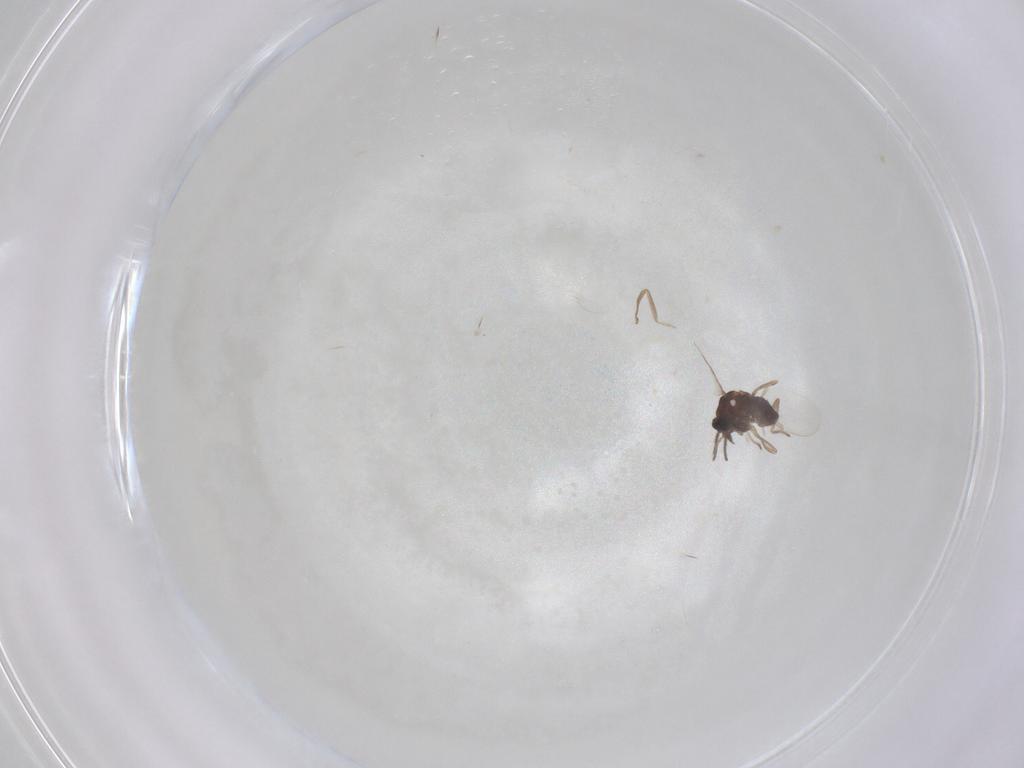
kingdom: Animalia
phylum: Arthropoda
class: Insecta
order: Diptera
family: Ceratopogonidae
